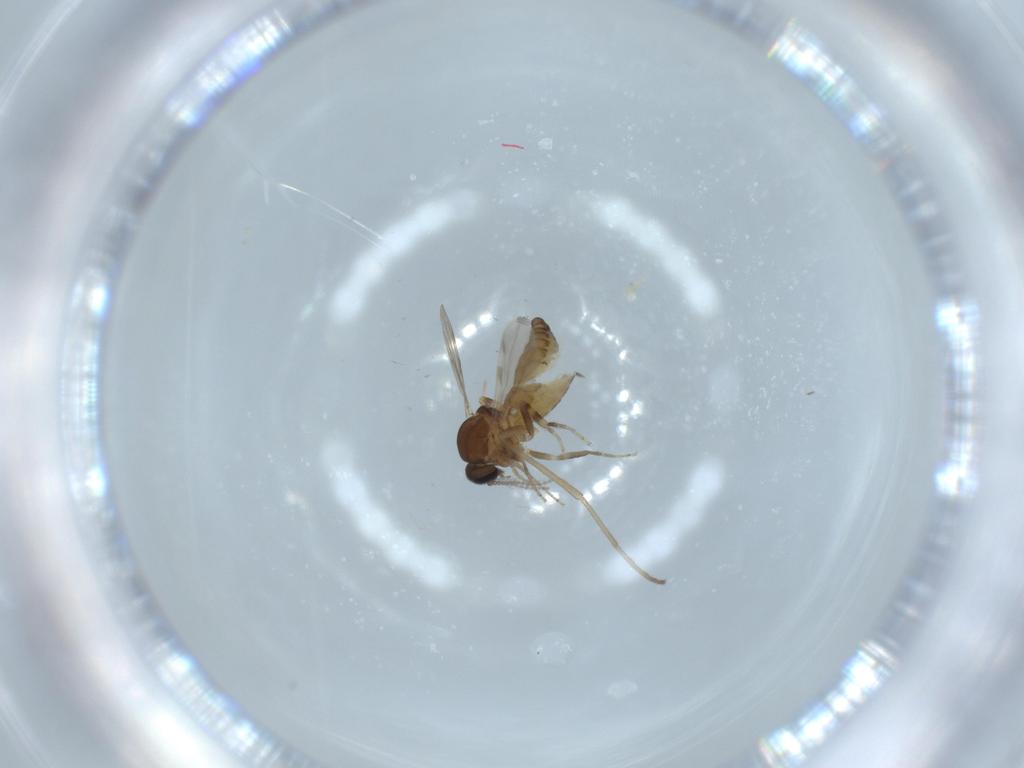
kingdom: Animalia
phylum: Arthropoda
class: Insecta
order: Diptera
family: Ceratopogonidae
